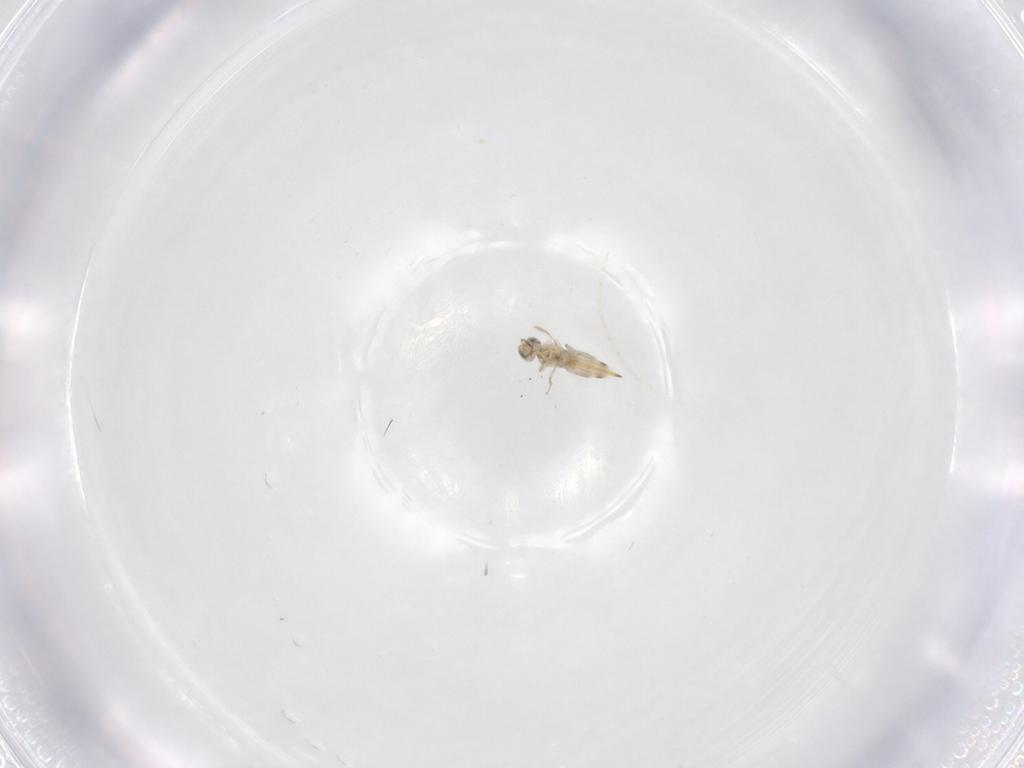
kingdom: Animalia
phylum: Arthropoda
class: Insecta
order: Hymenoptera
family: Aphelinidae
